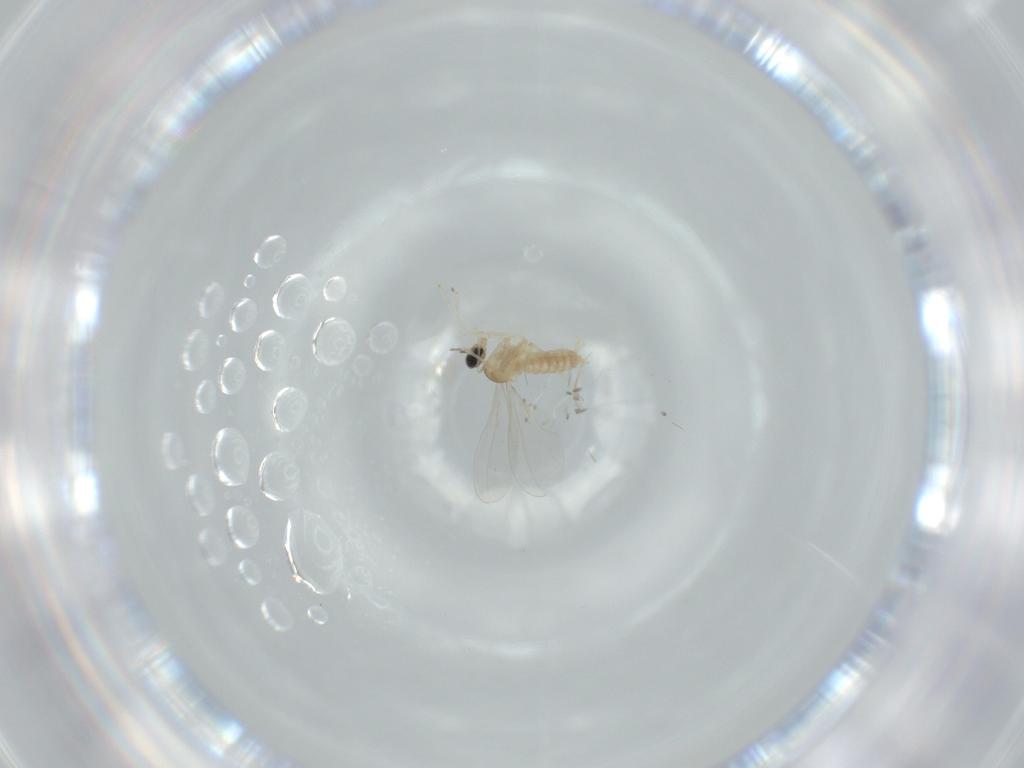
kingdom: Animalia
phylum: Arthropoda
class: Insecta
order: Diptera
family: Cecidomyiidae
